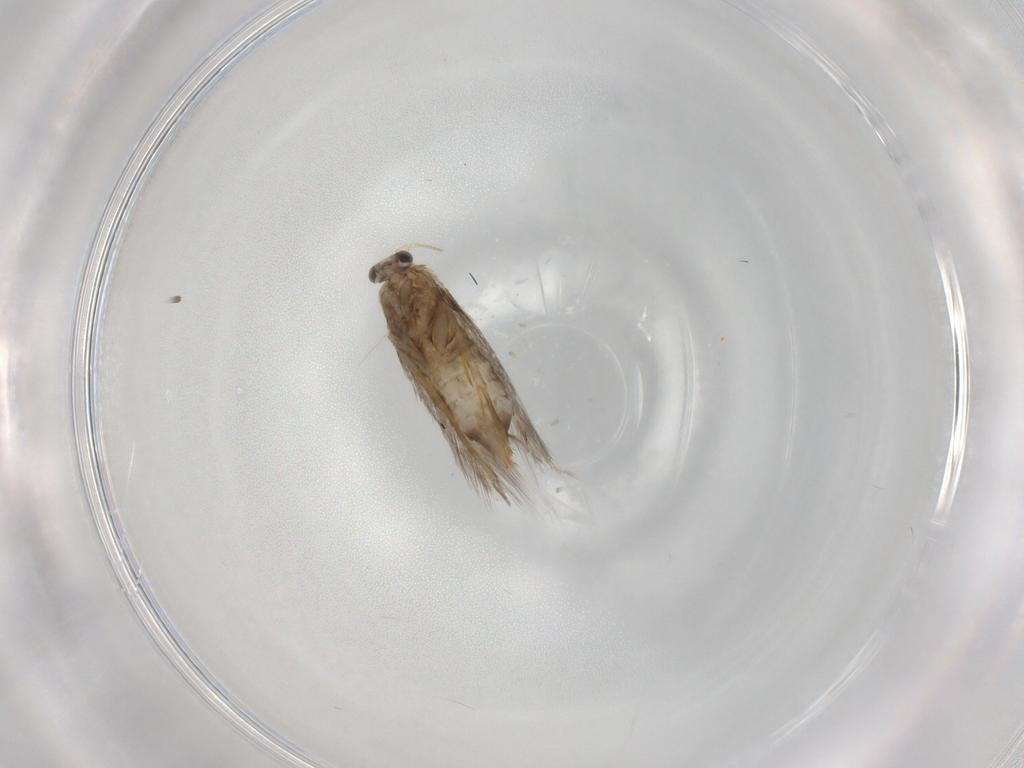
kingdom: Animalia
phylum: Arthropoda
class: Insecta
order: Lepidoptera
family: Nepticulidae
